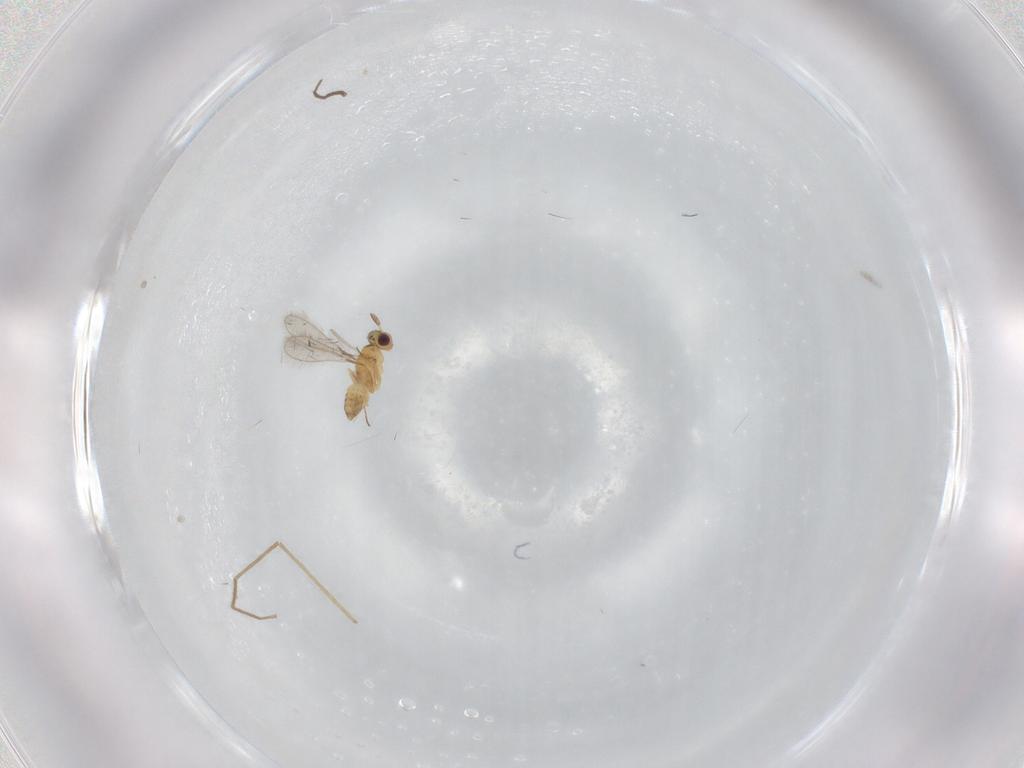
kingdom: Animalia
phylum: Arthropoda
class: Insecta
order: Hymenoptera
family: Mymaridae
